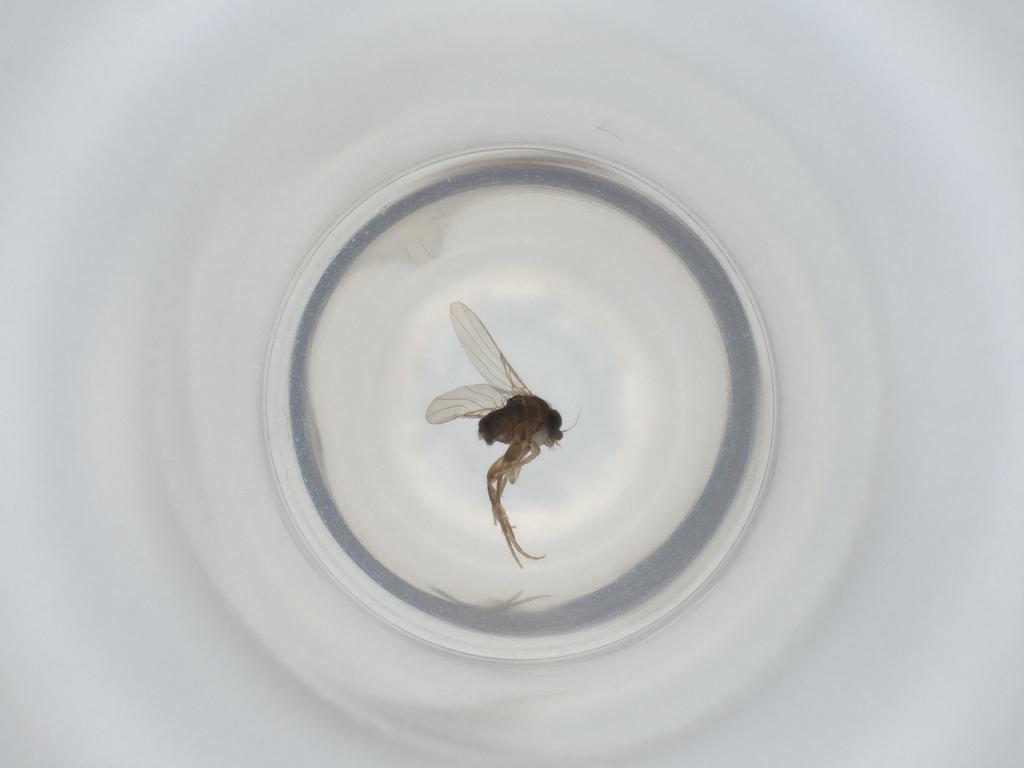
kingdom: Animalia
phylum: Arthropoda
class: Insecta
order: Diptera
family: Phoridae
